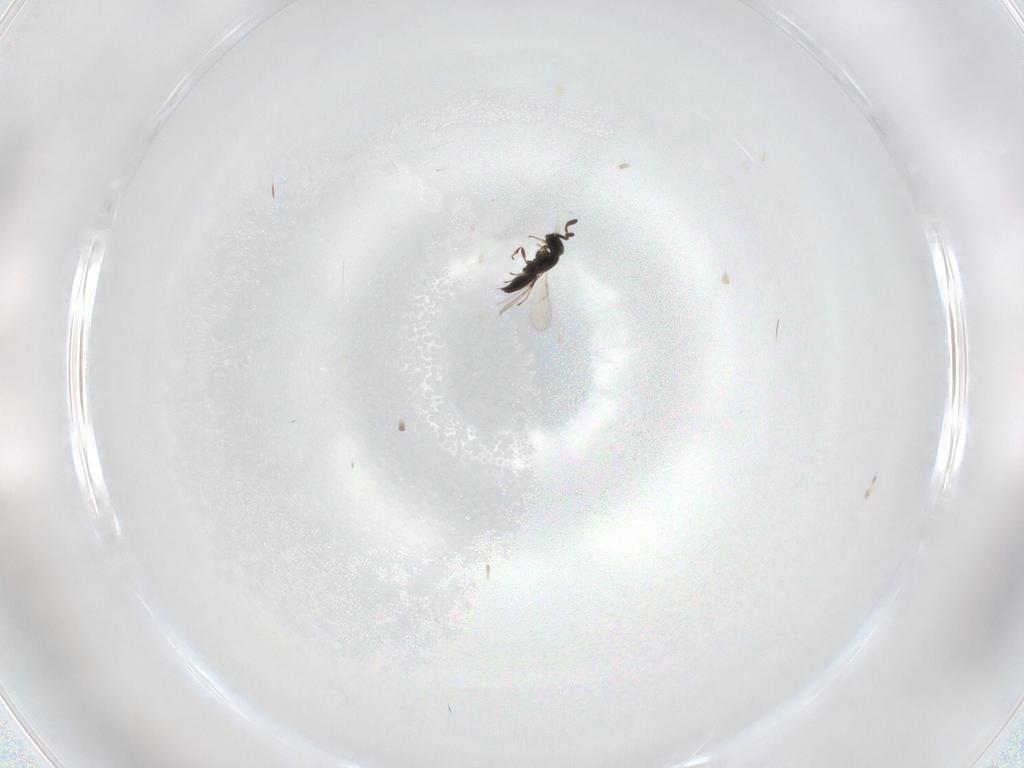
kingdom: Animalia
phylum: Arthropoda
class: Insecta
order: Hymenoptera
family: Scelionidae
